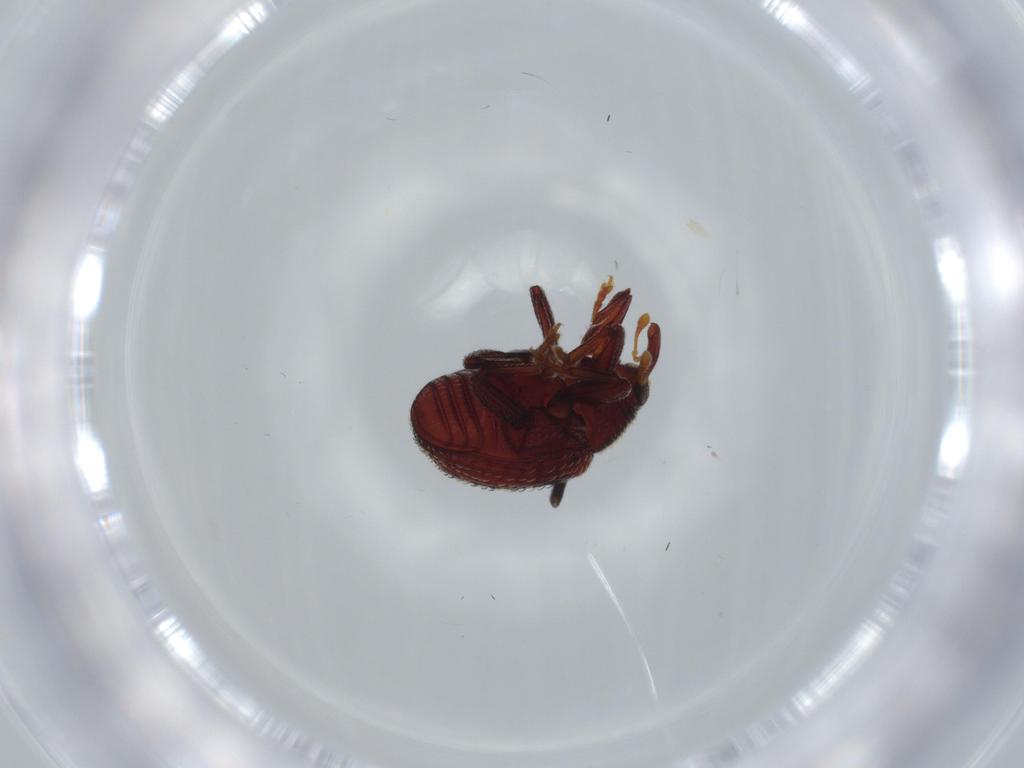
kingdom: Animalia
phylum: Arthropoda
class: Insecta
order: Coleoptera
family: Curculionidae
